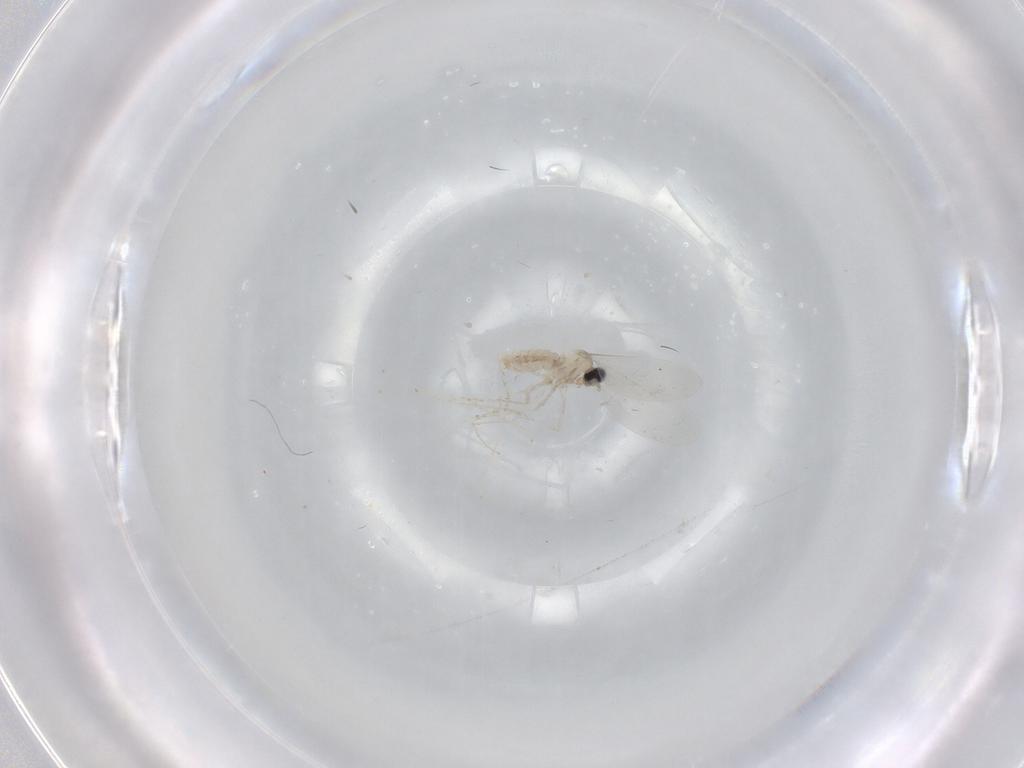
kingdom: Animalia
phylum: Arthropoda
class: Insecta
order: Diptera
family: Cecidomyiidae
